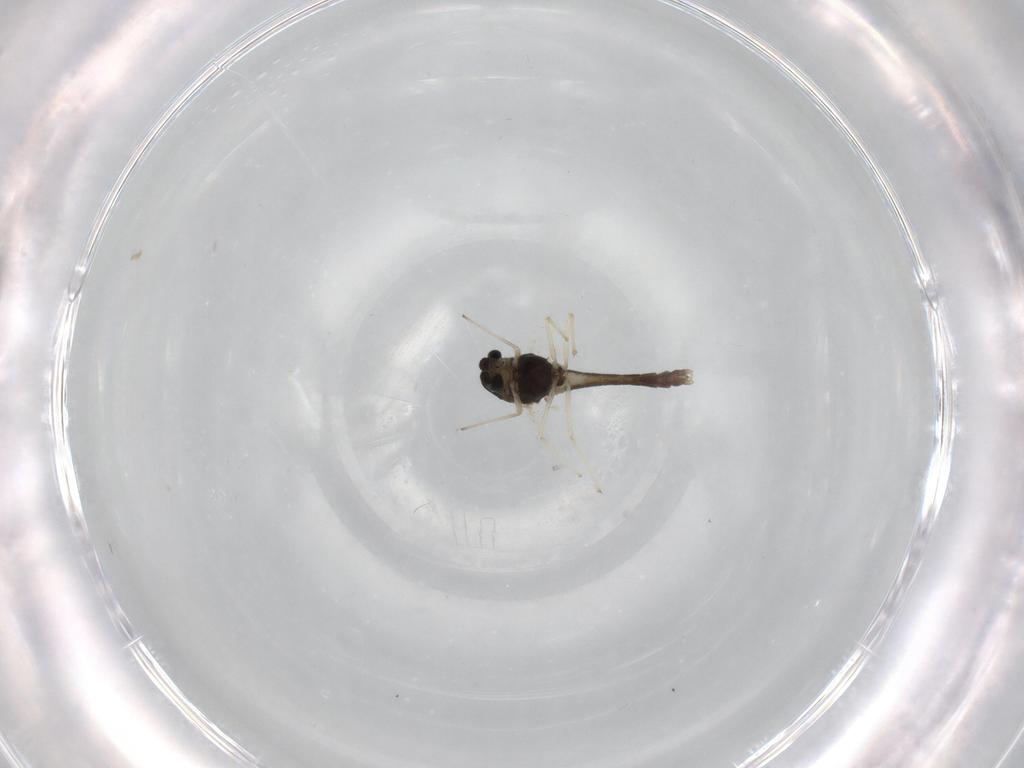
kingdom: Animalia
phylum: Arthropoda
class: Insecta
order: Diptera
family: Chironomidae
